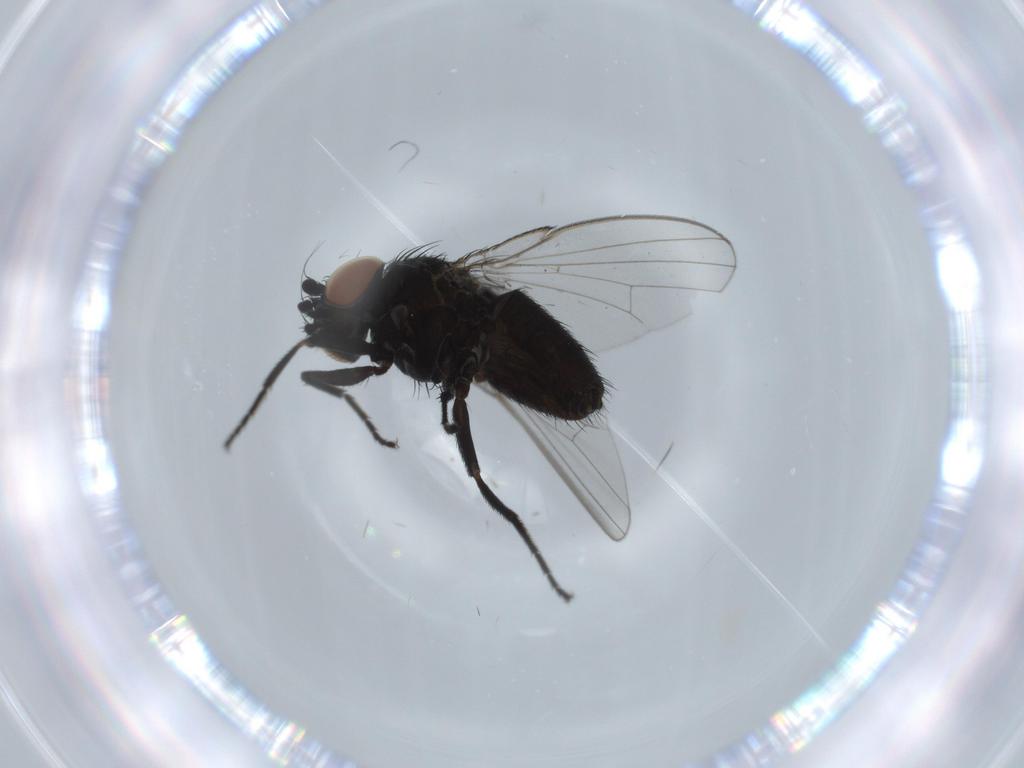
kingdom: Animalia
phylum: Arthropoda
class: Insecta
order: Diptera
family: Milichiidae
